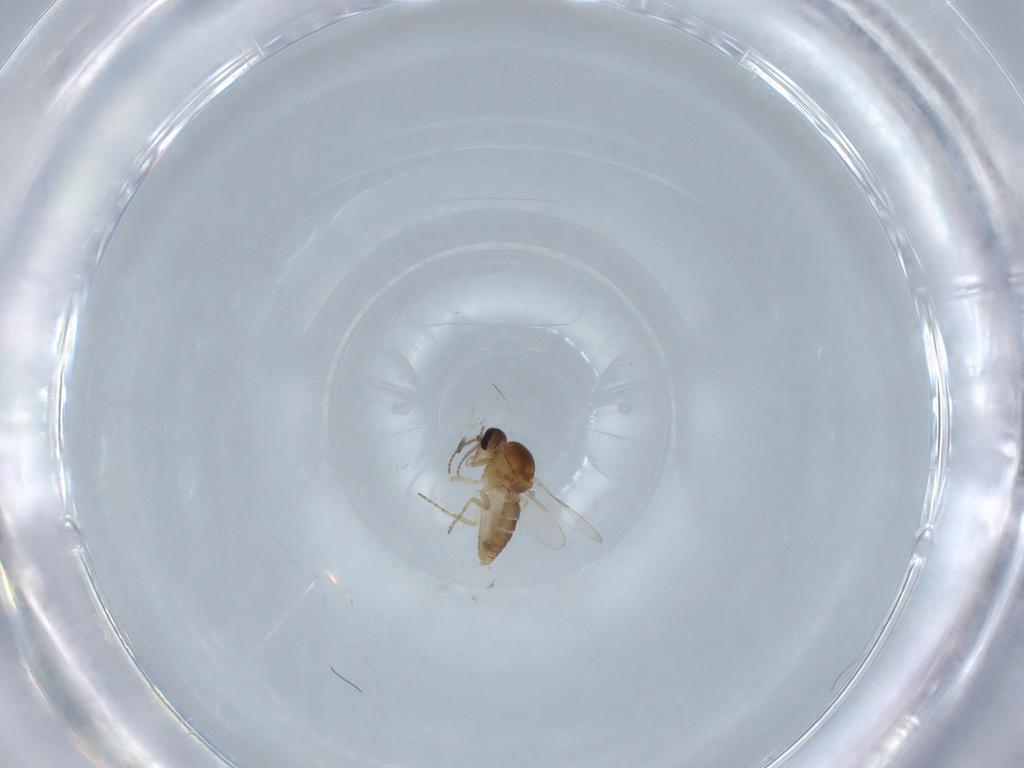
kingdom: Animalia
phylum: Arthropoda
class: Insecta
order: Diptera
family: Ceratopogonidae
